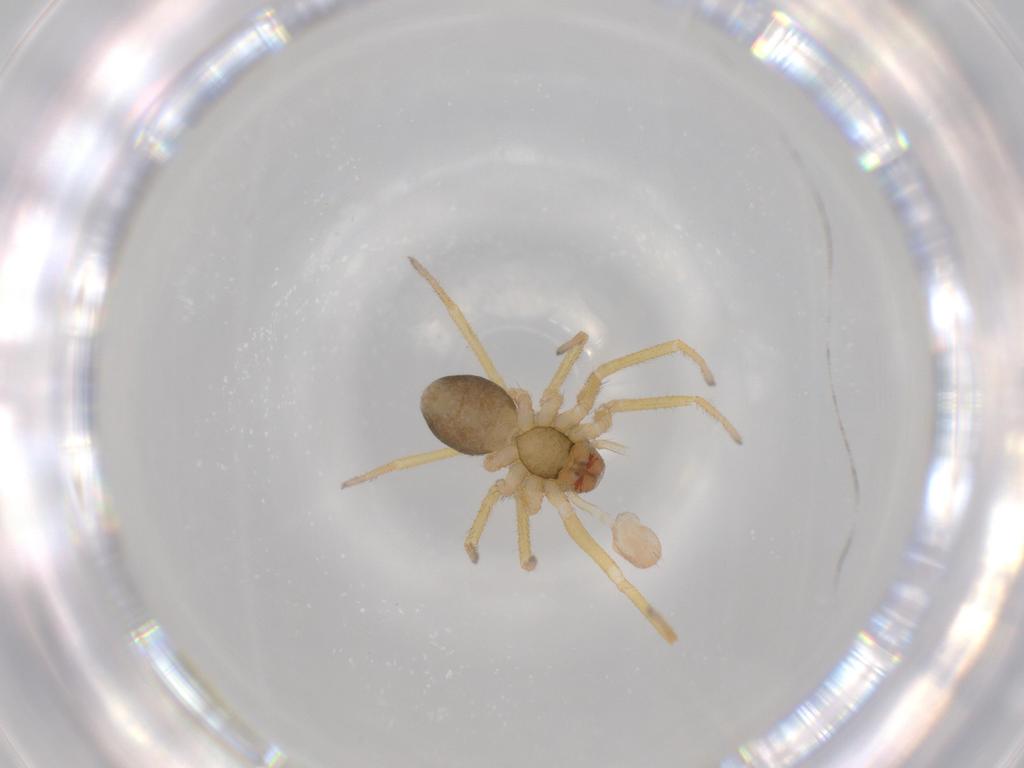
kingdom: Animalia
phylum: Arthropoda
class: Arachnida
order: Araneae
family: Linyphiidae
